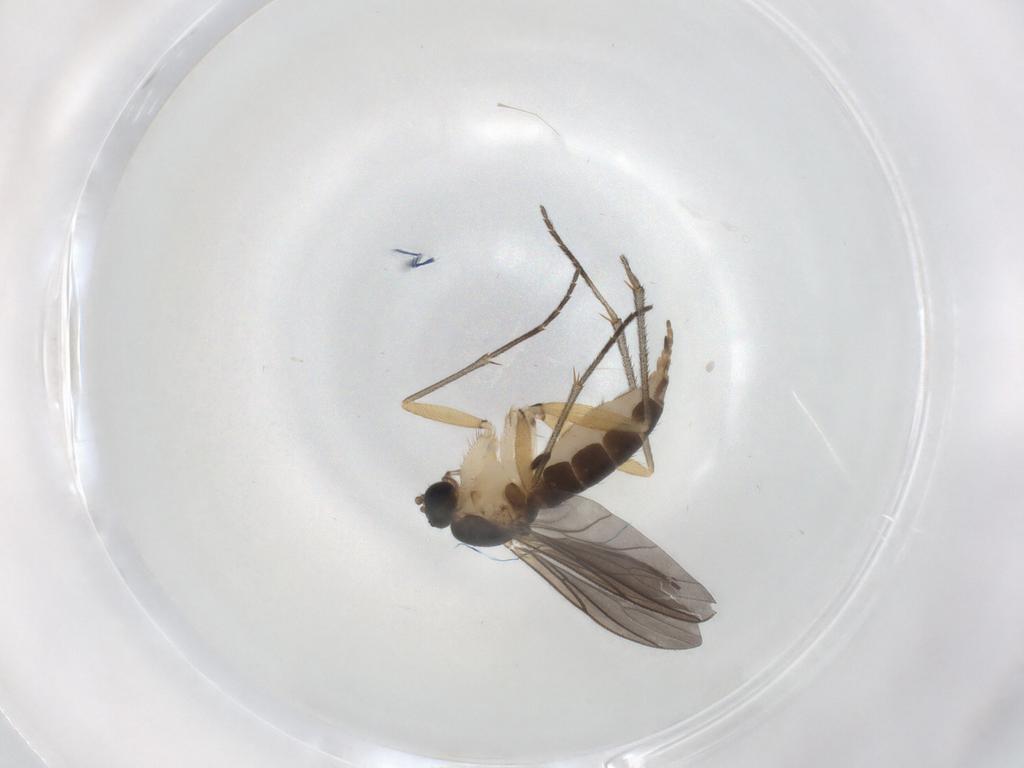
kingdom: Animalia
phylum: Arthropoda
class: Insecta
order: Diptera
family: Sciaridae
